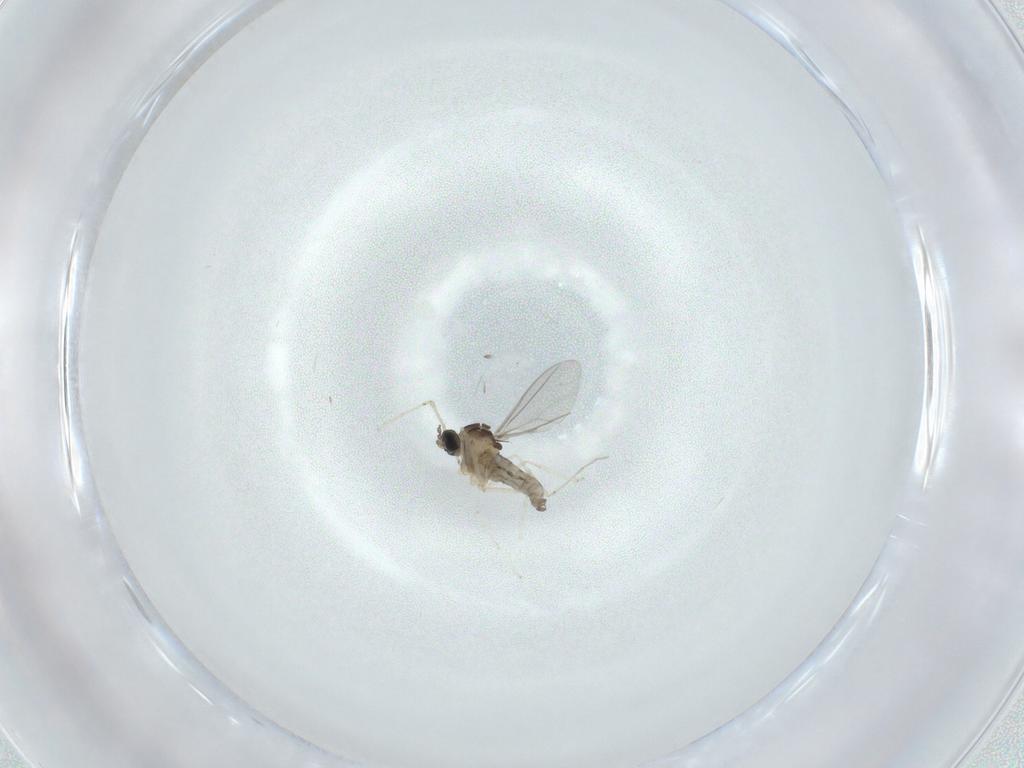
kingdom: Animalia
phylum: Arthropoda
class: Insecta
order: Diptera
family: Cecidomyiidae
